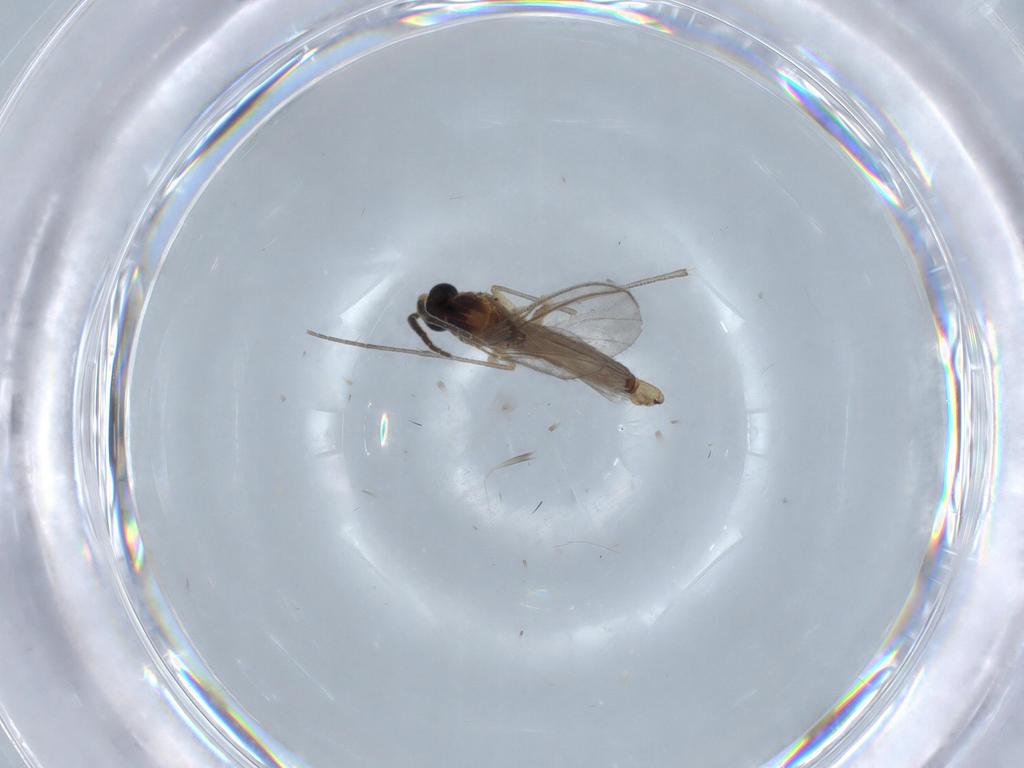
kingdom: Animalia
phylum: Arthropoda
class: Insecta
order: Diptera
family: Sciaridae
